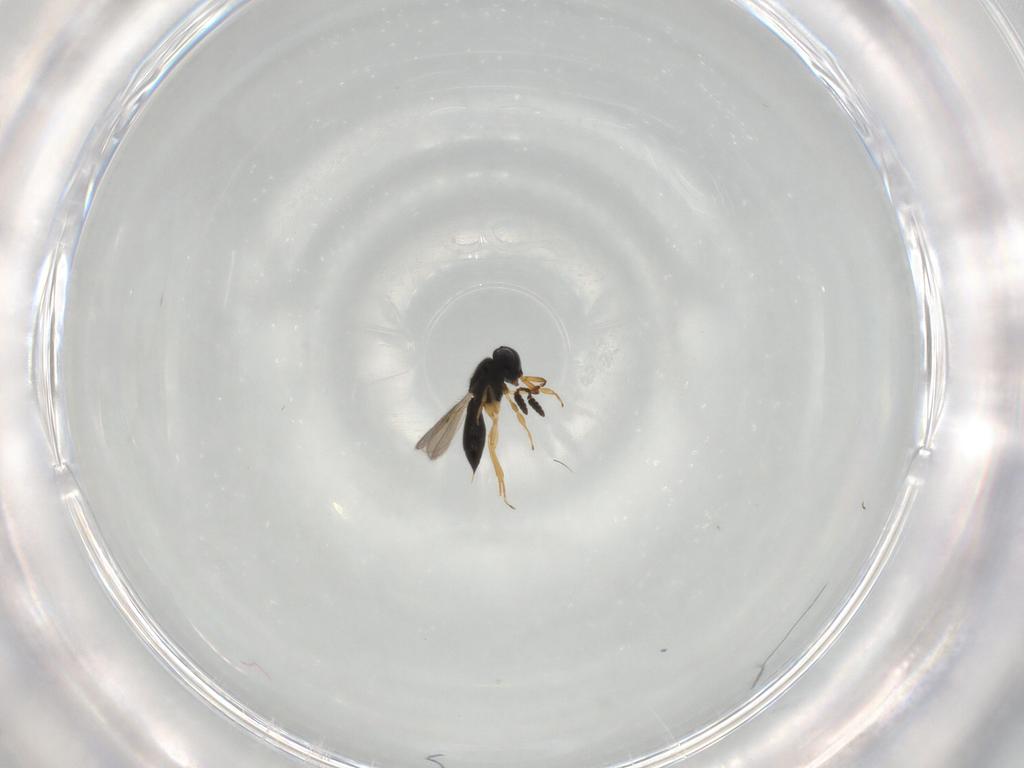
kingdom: Animalia
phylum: Arthropoda
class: Insecta
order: Hymenoptera
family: Scelionidae
